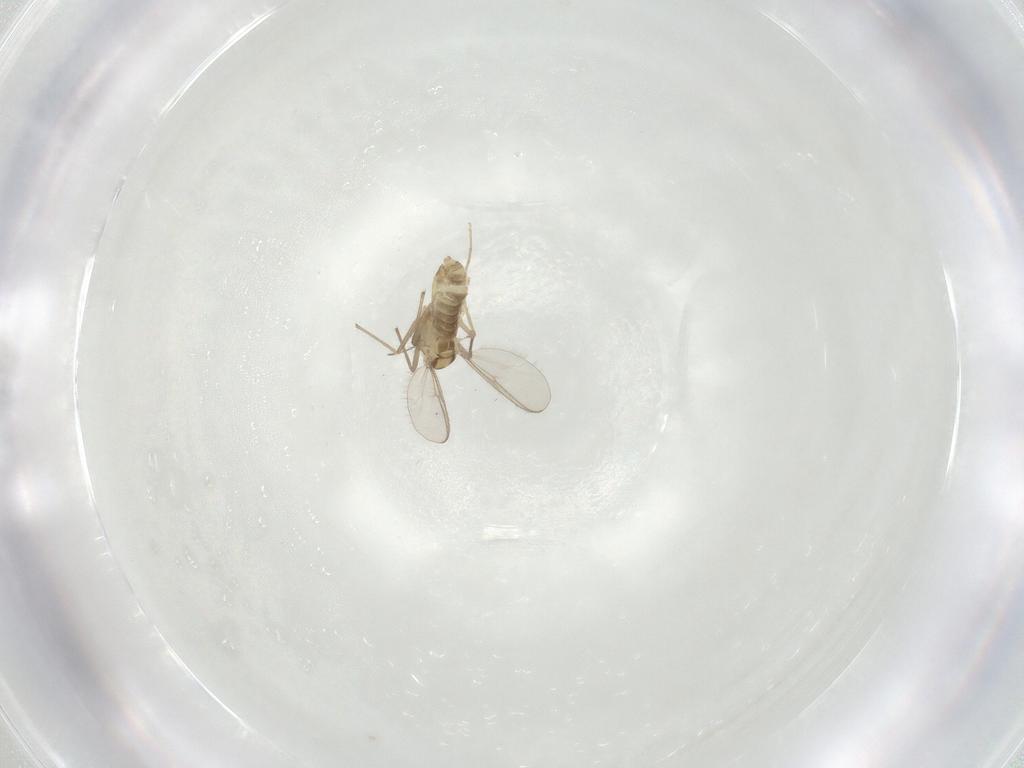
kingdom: Animalia
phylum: Arthropoda
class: Insecta
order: Diptera
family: Chironomidae
